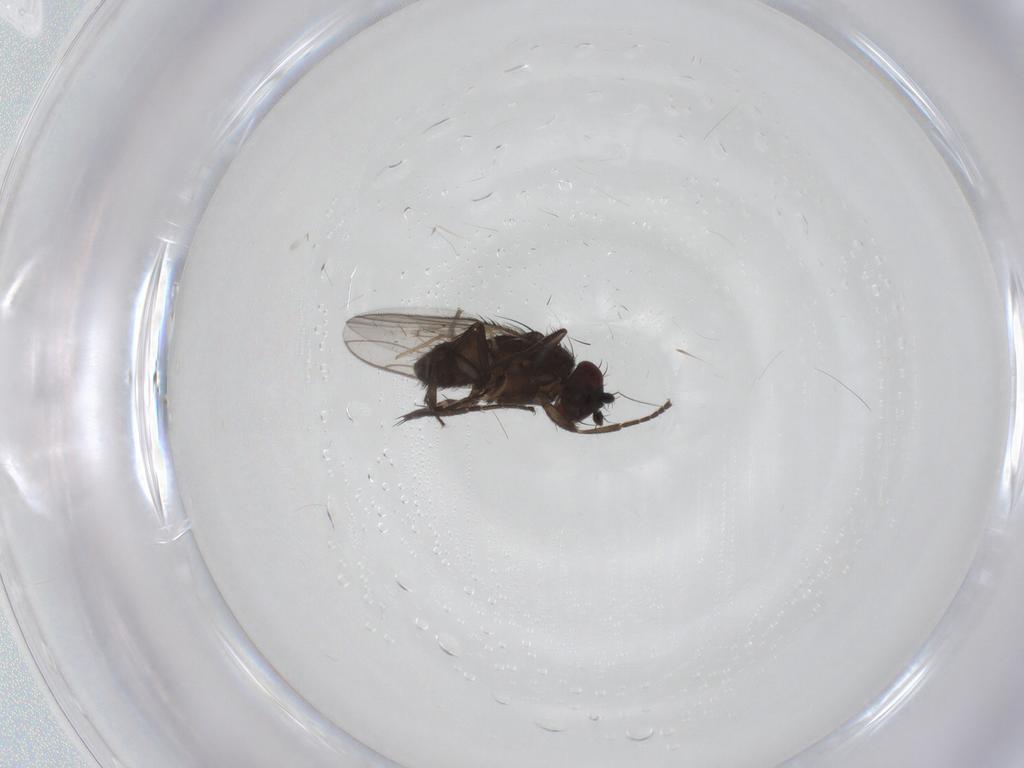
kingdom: Animalia
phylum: Arthropoda
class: Insecta
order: Diptera
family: Sphaeroceridae
